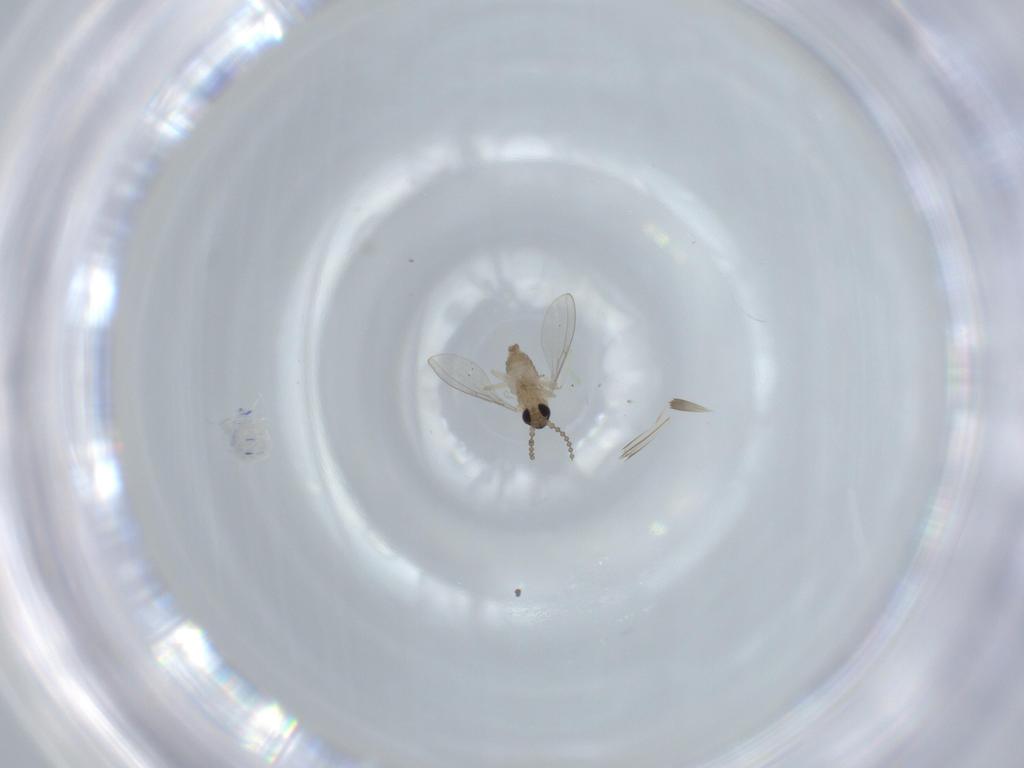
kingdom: Animalia
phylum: Arthropoda
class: Insecta
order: Diptera
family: Cecidomyiidae
